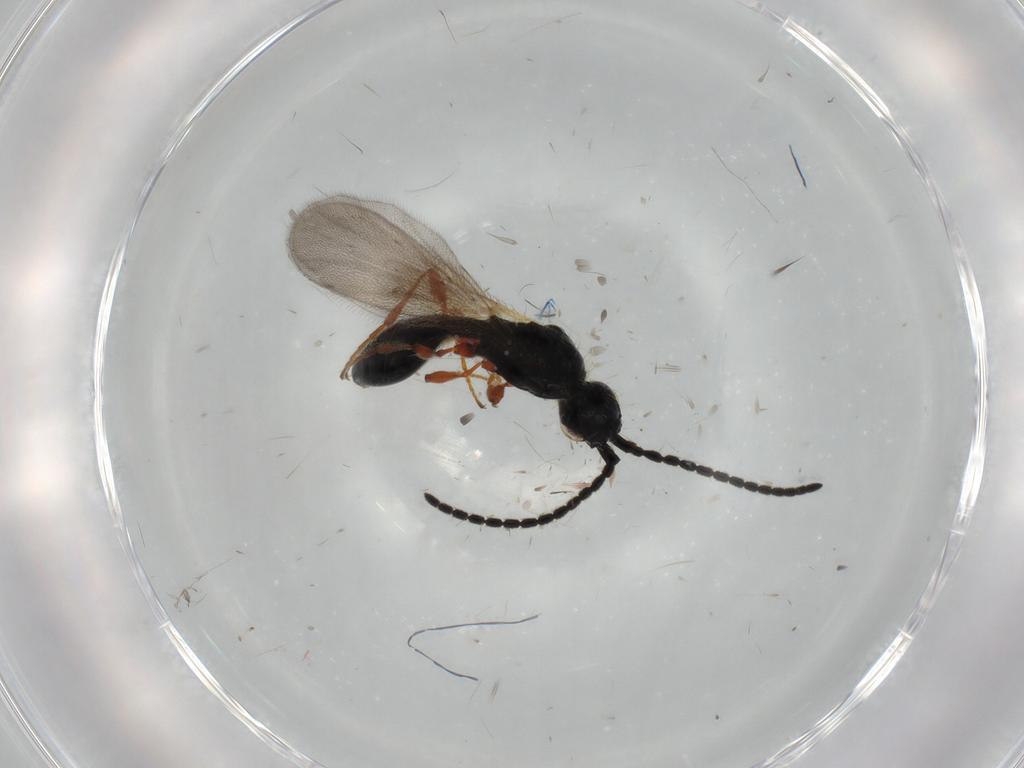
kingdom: Animalia
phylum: Arthropoda
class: Insecta
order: Hymenoptera
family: Diapriidae
